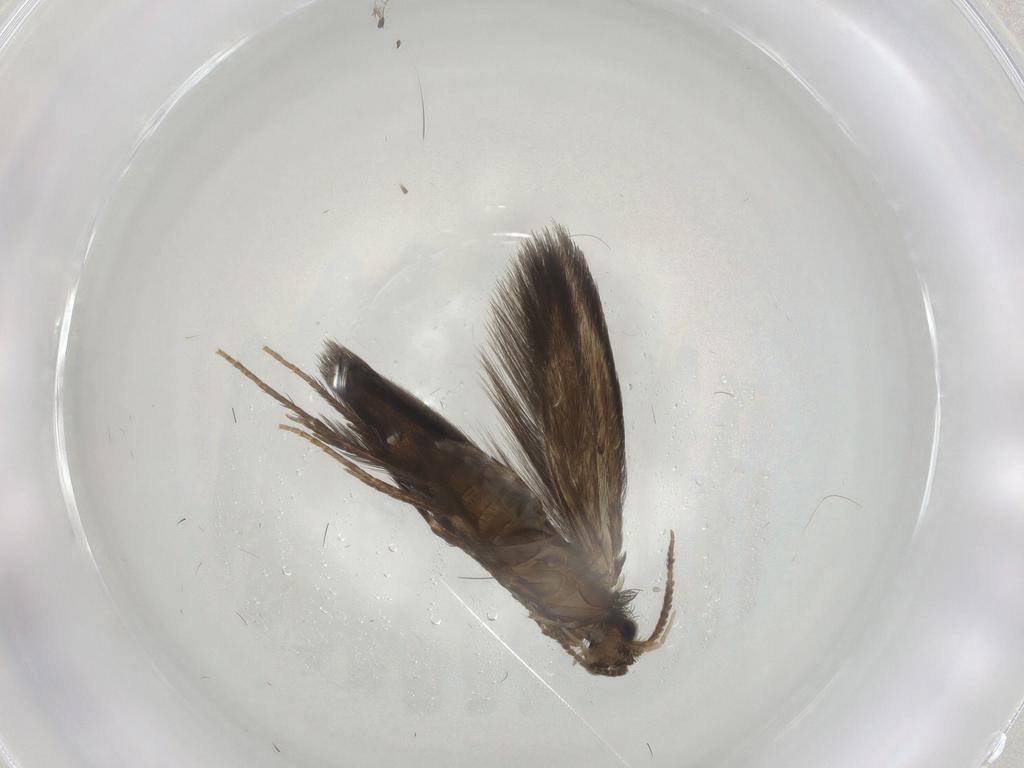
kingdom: Animalia
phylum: Arthropoda
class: Insecta
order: Trichoptera
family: Hydroptilidae
